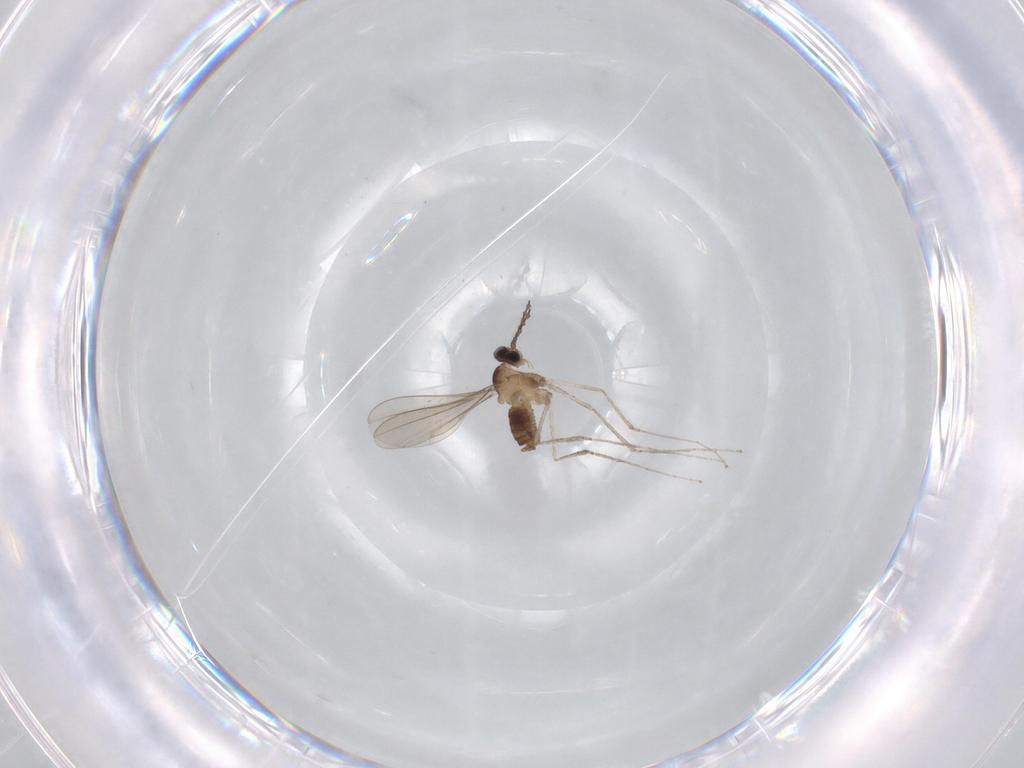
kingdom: Animalia
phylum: Arthropoda
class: Insecta
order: Diptera
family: Cecidomyiidae
